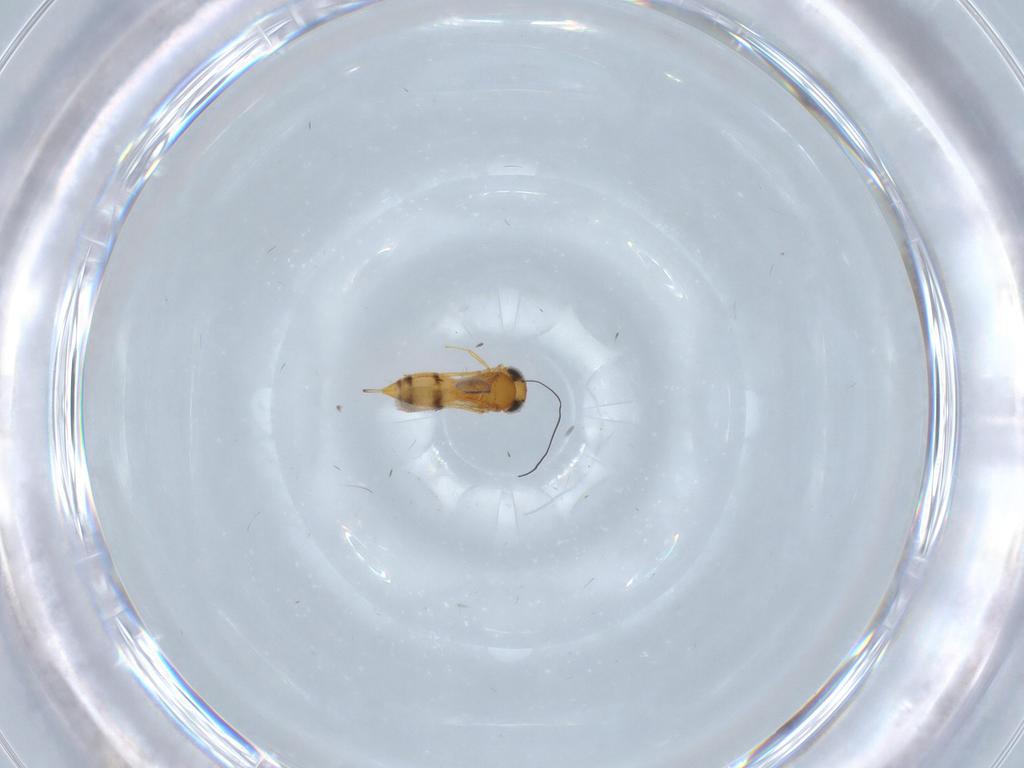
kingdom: Animalia
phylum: Arthropoda
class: Insecta
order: Hymenoptera
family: Scelionidae
